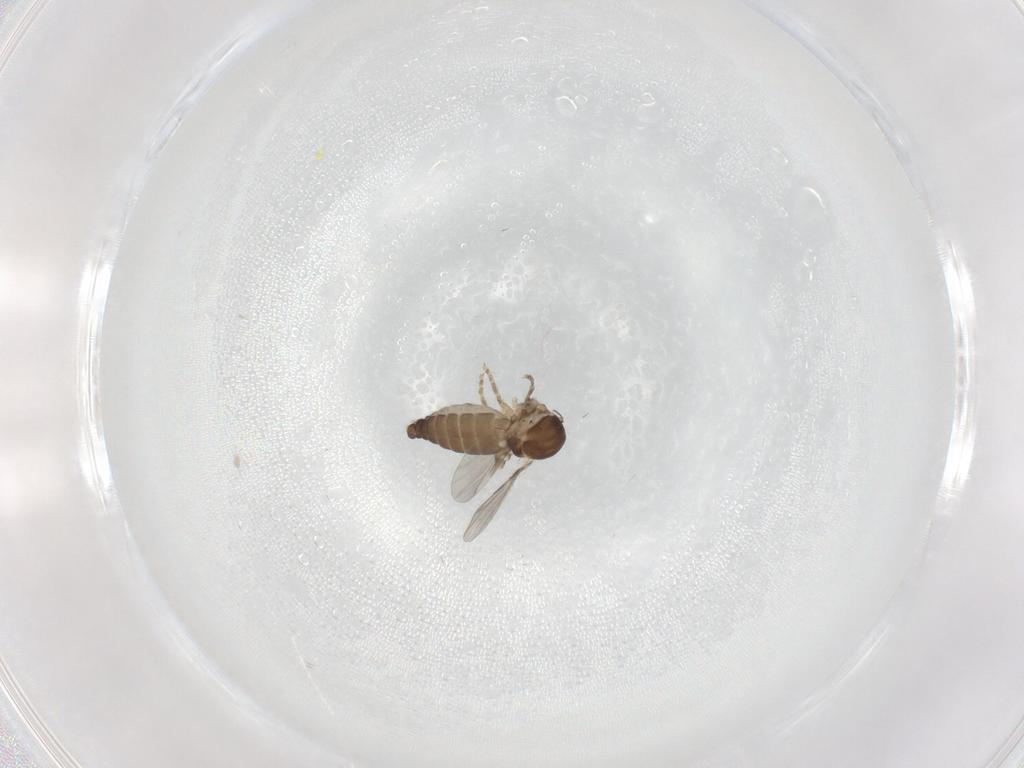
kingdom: Animalia
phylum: Arthropoda
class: Insecta
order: Diptera
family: Ceratopogonidae
